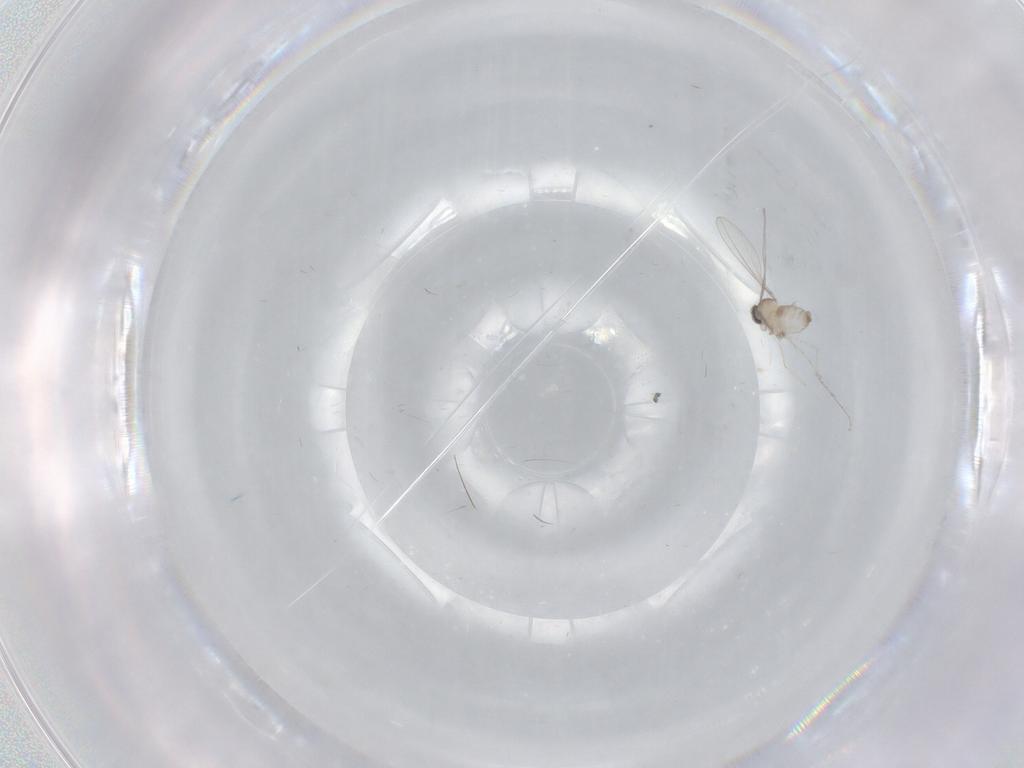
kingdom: Animalia
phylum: Arthropoda
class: Insecta
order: Diptera
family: Cecidomyiidae
